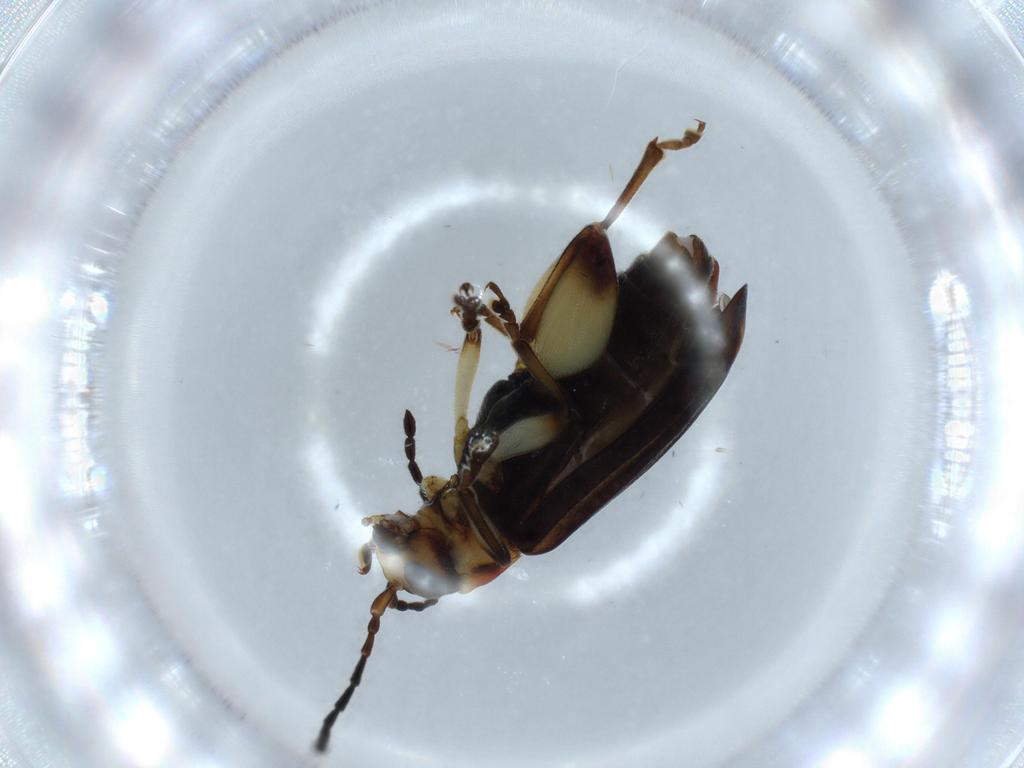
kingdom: Animalia
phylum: Arthropoda
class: Insecta
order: Coleoptera
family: Chrysomelidae
